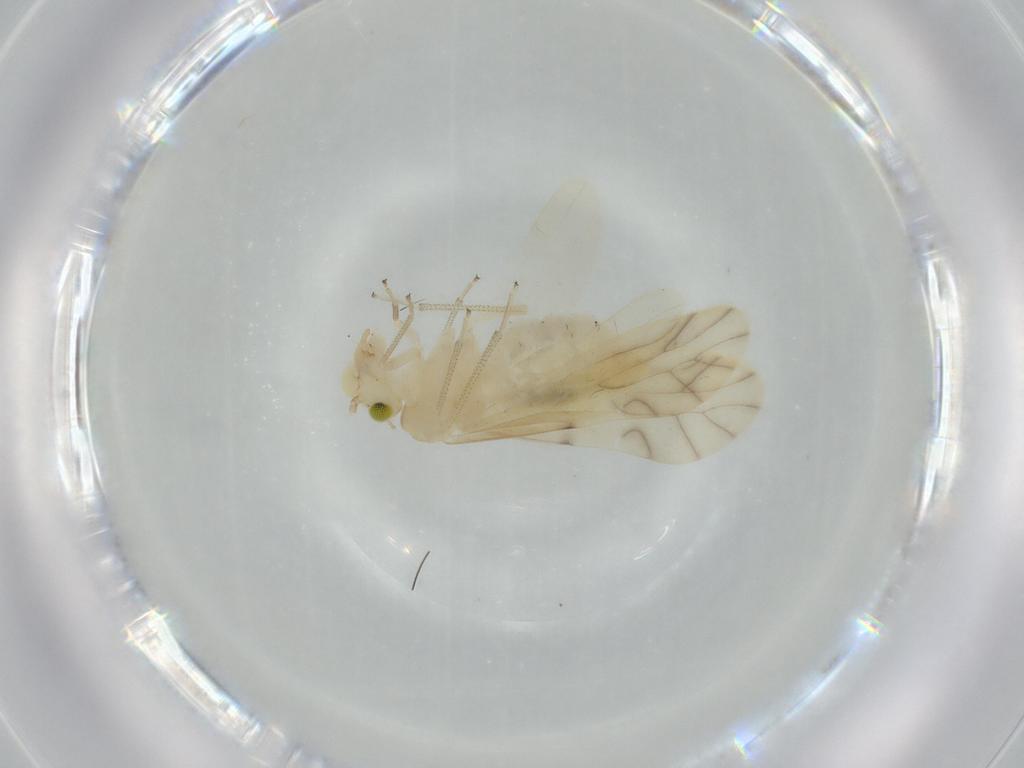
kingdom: Animalia
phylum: Arthropoda
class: Insecta
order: Psocodea
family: Caeciliusidae
